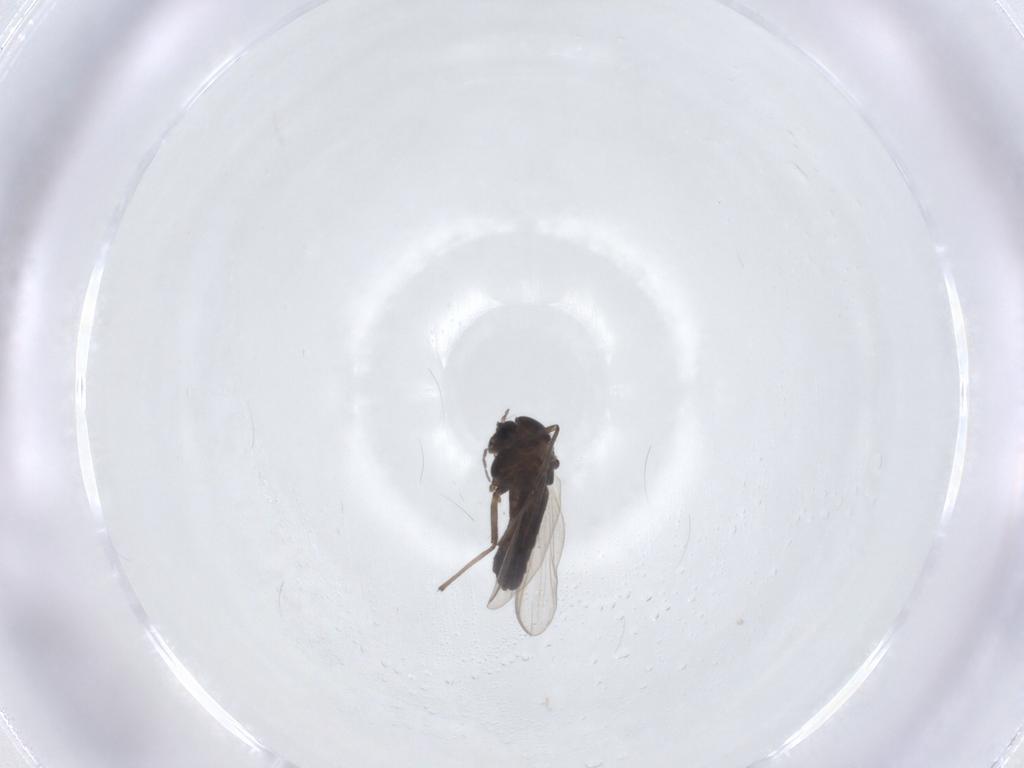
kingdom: Animalia
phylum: Arthropoda
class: Insecta
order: Diptera
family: Chironomidae
